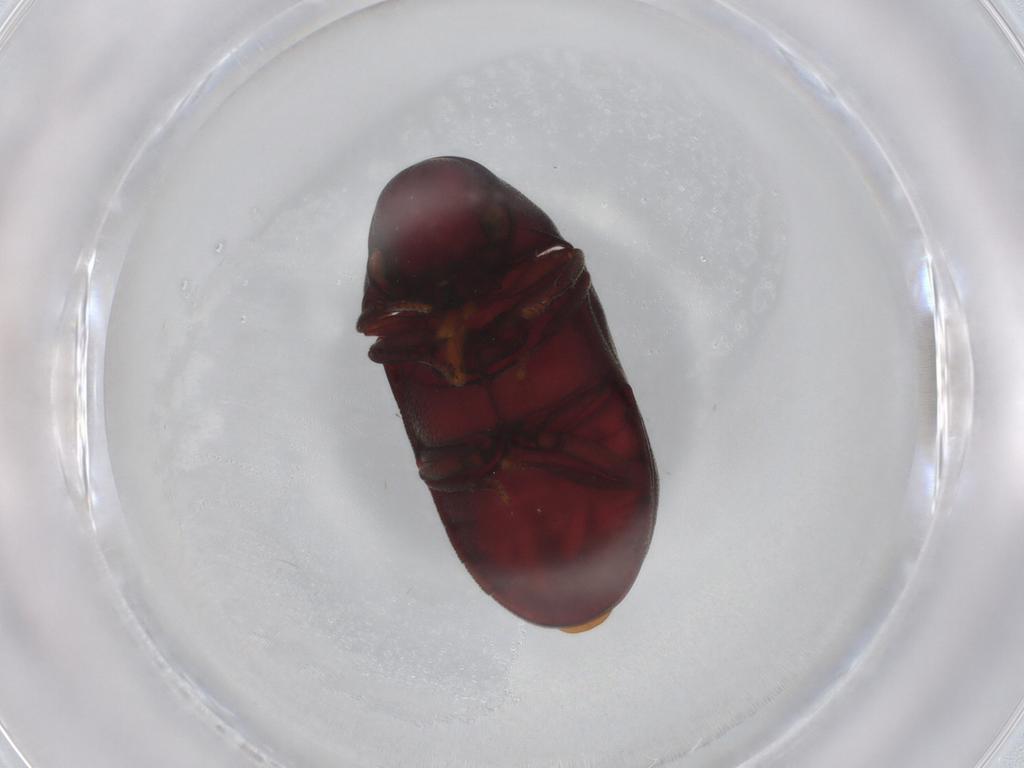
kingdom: Animalia
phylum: Arthropoda
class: Insecta
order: Coleoptera
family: Ptinidae
